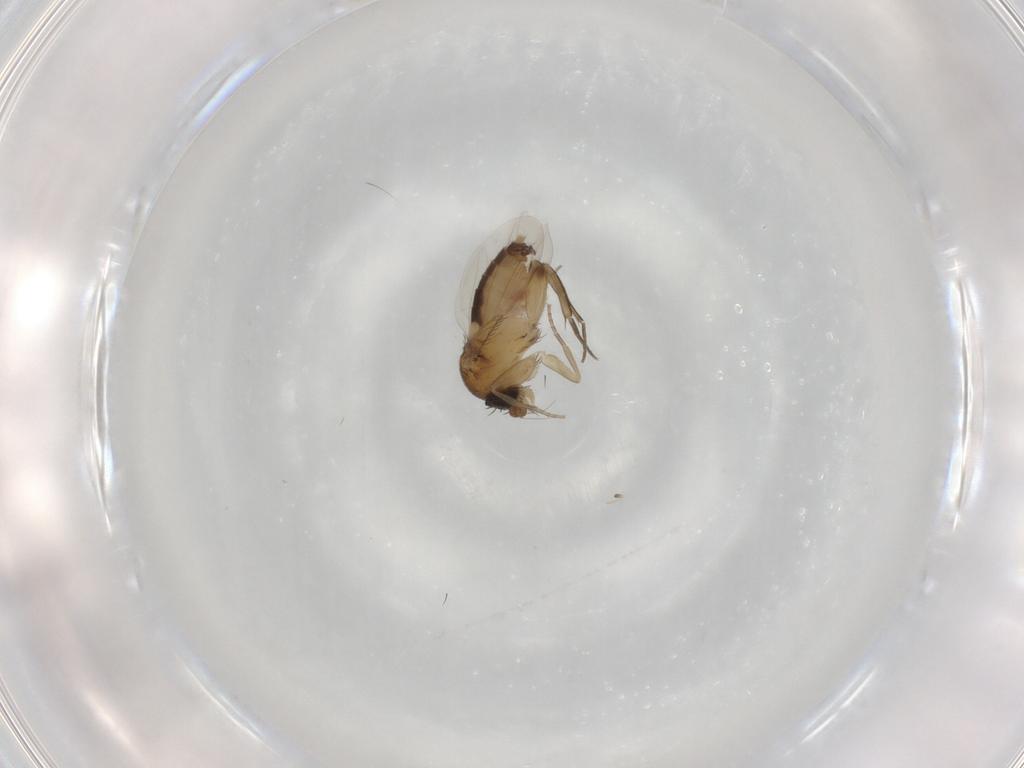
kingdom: Animalia
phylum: Arthropoda
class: Insecta
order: Diptera
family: Phoridae
